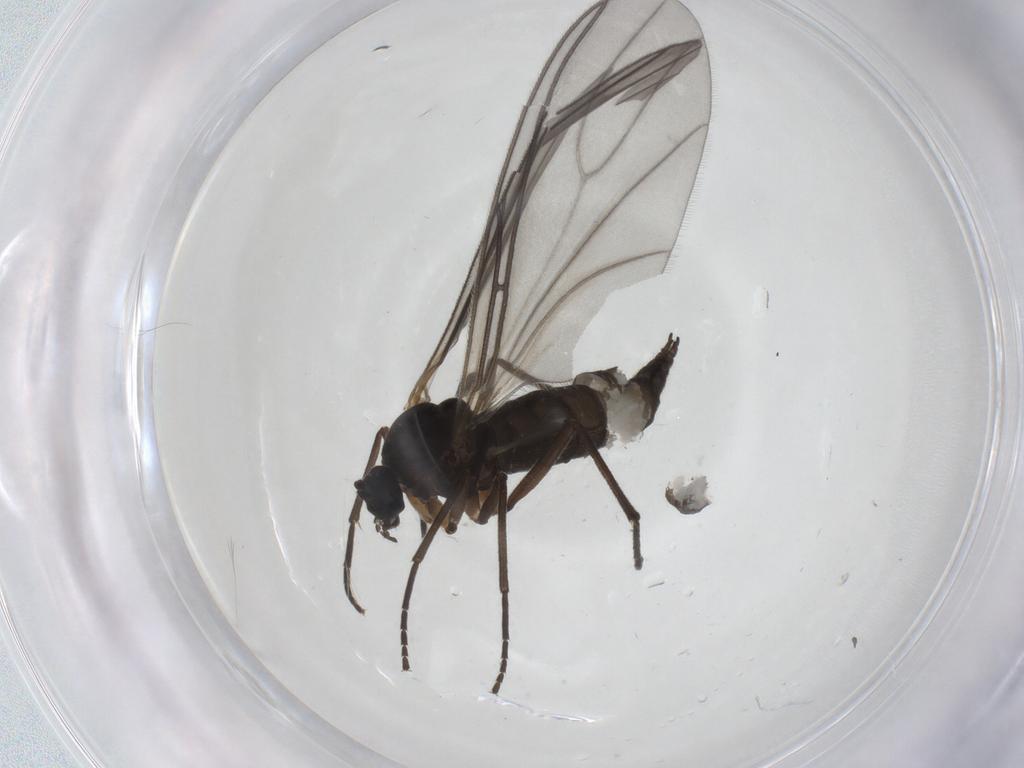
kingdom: Animalia
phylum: Arthropoda
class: Insecta
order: Diptera
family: Sciaridae
